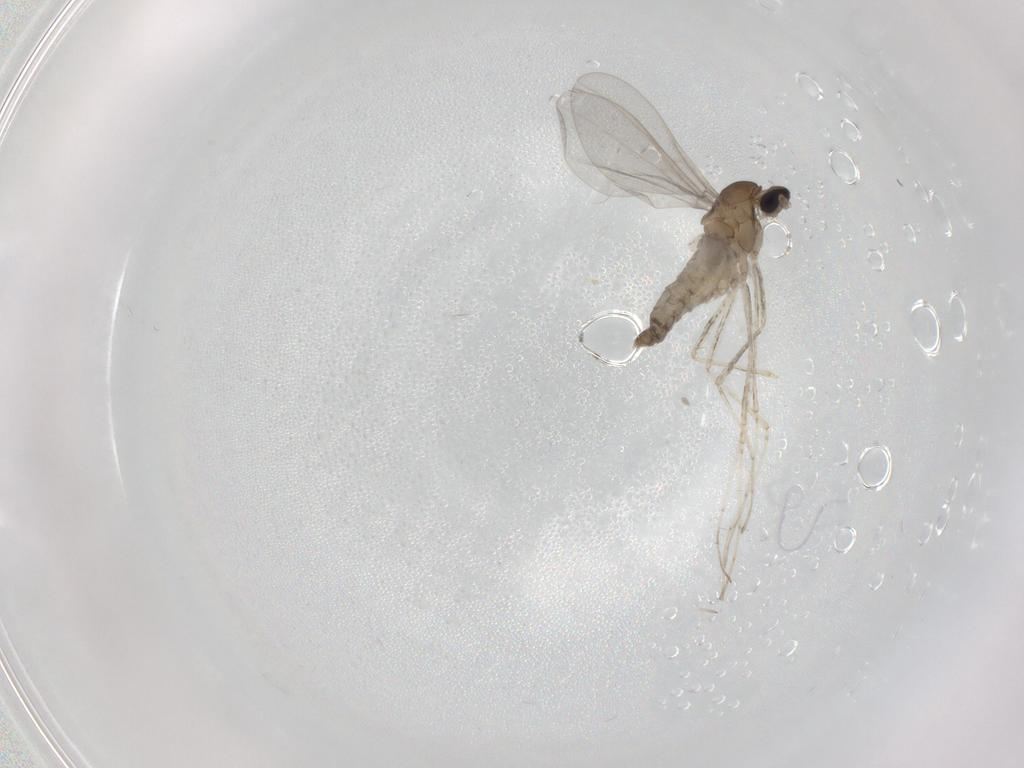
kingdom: Animalia
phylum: Arthropoda
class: Insecta
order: Diptera
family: Cecidomyiidae
